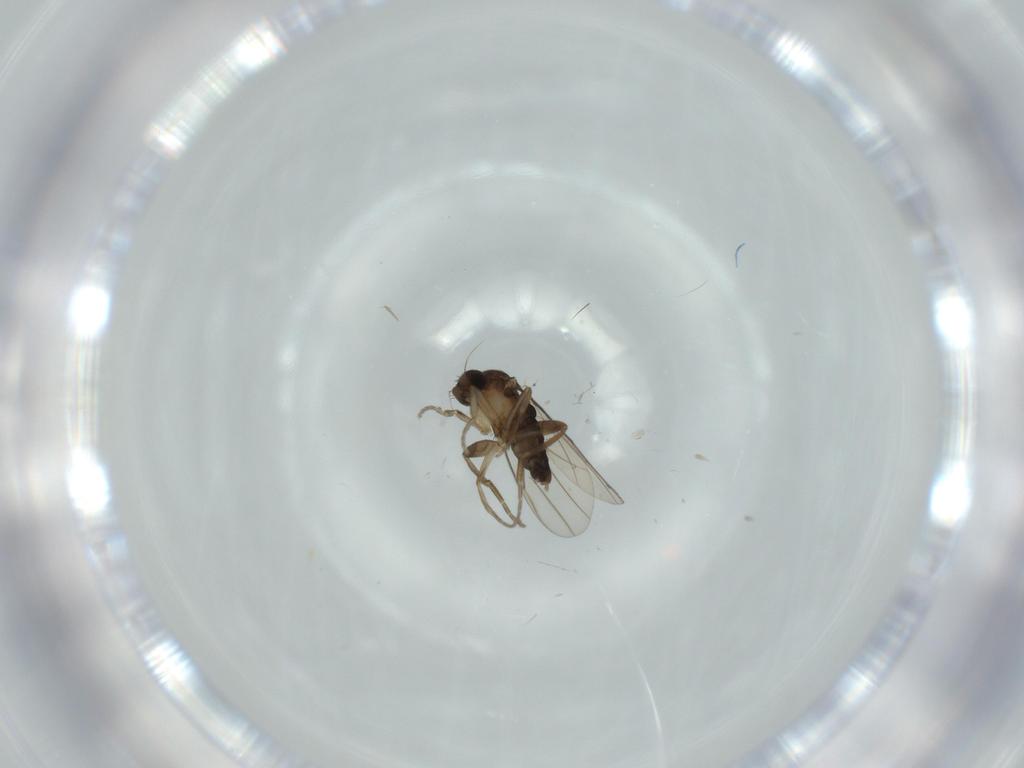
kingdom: Animalia
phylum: Arthropoda
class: Insecta
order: Diptera
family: Phoridae
